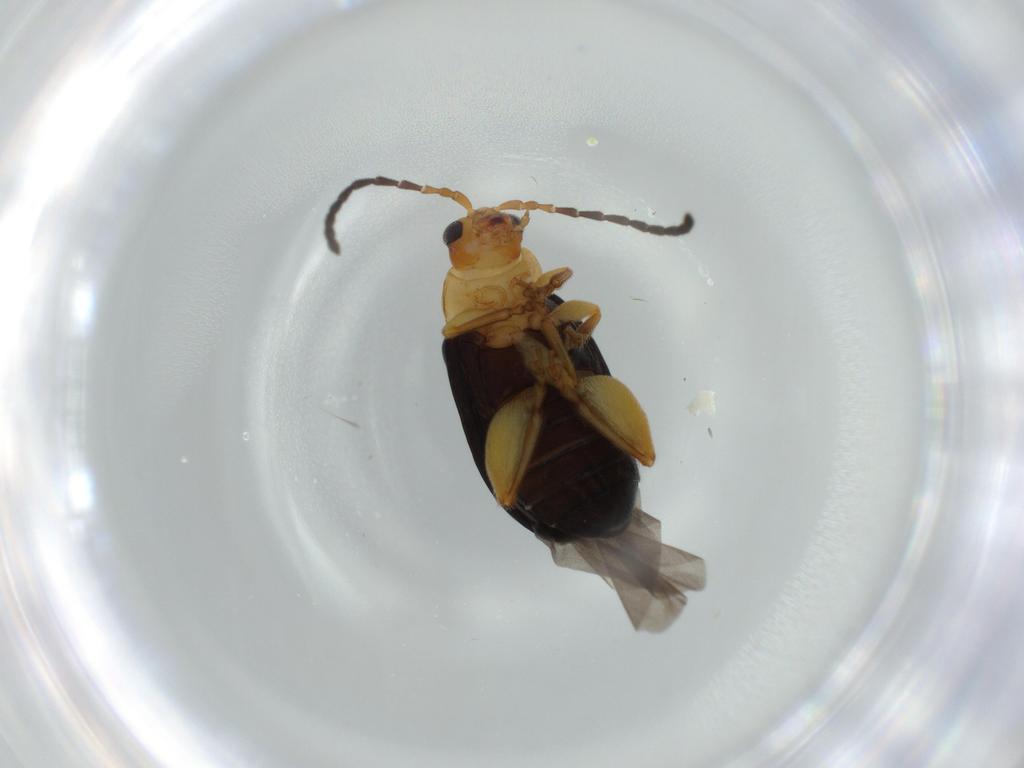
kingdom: Animalia
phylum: Arthropoda
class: Insecta
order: Coleoptera
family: Chrysomelidae
